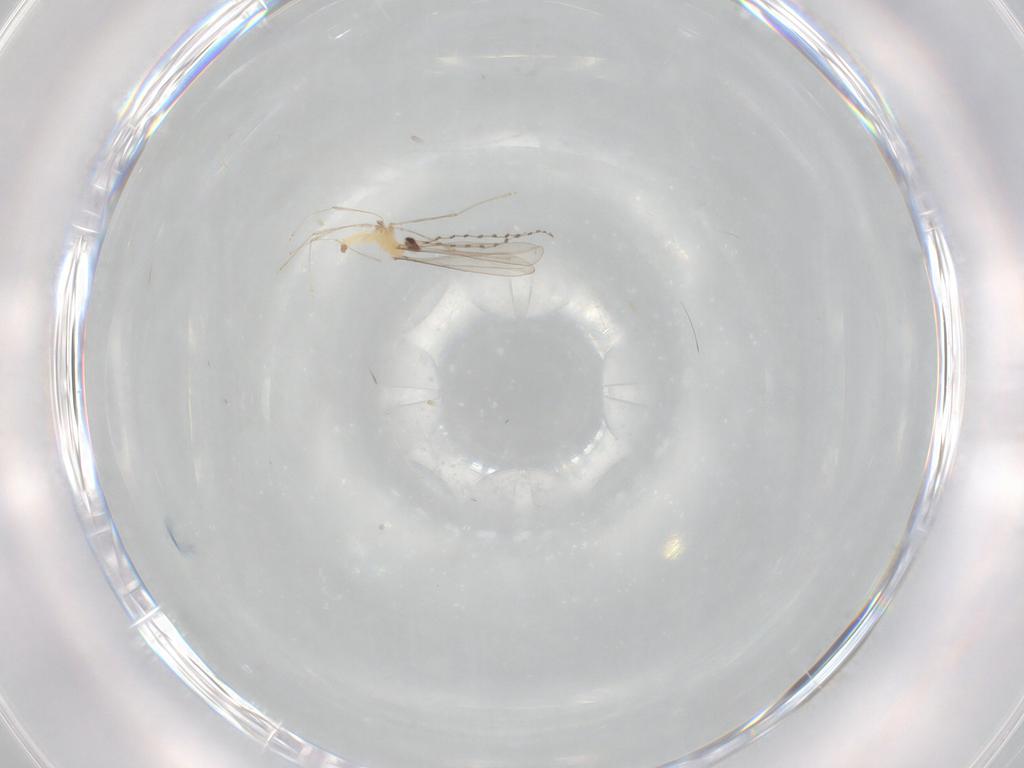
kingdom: Animalia
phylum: Arthropoda
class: Insecta
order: Diptera
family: Cecidomyiidae
